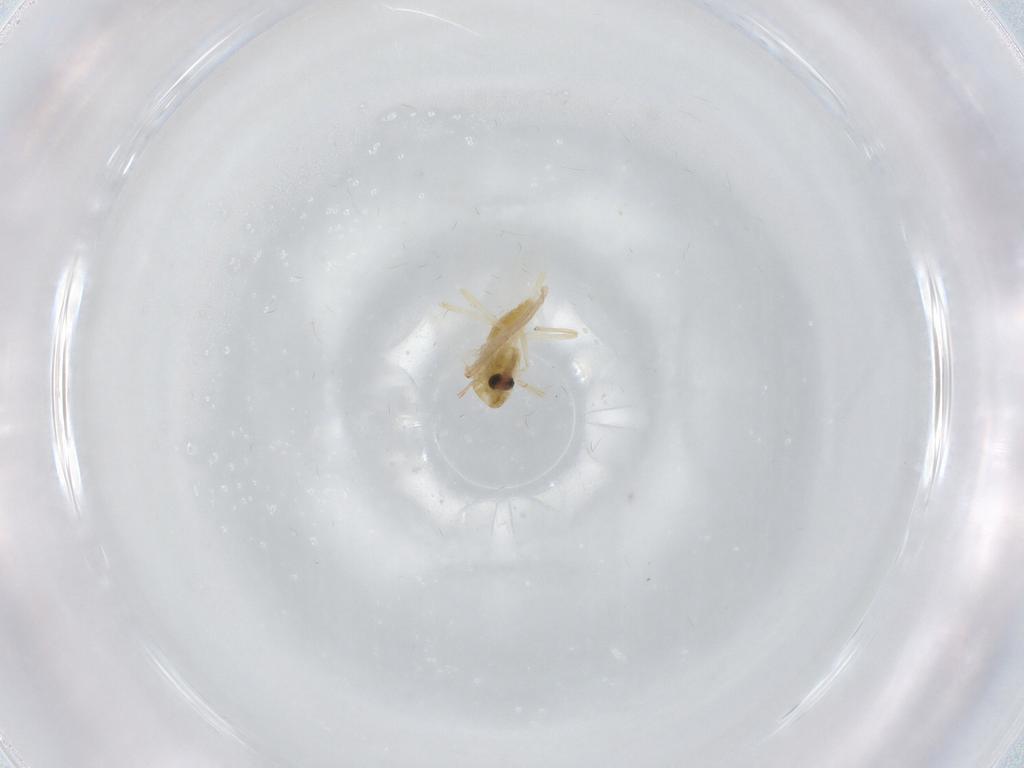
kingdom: Animalia
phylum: Arthropoda
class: Insecta
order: Diptera
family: Chironomidae
